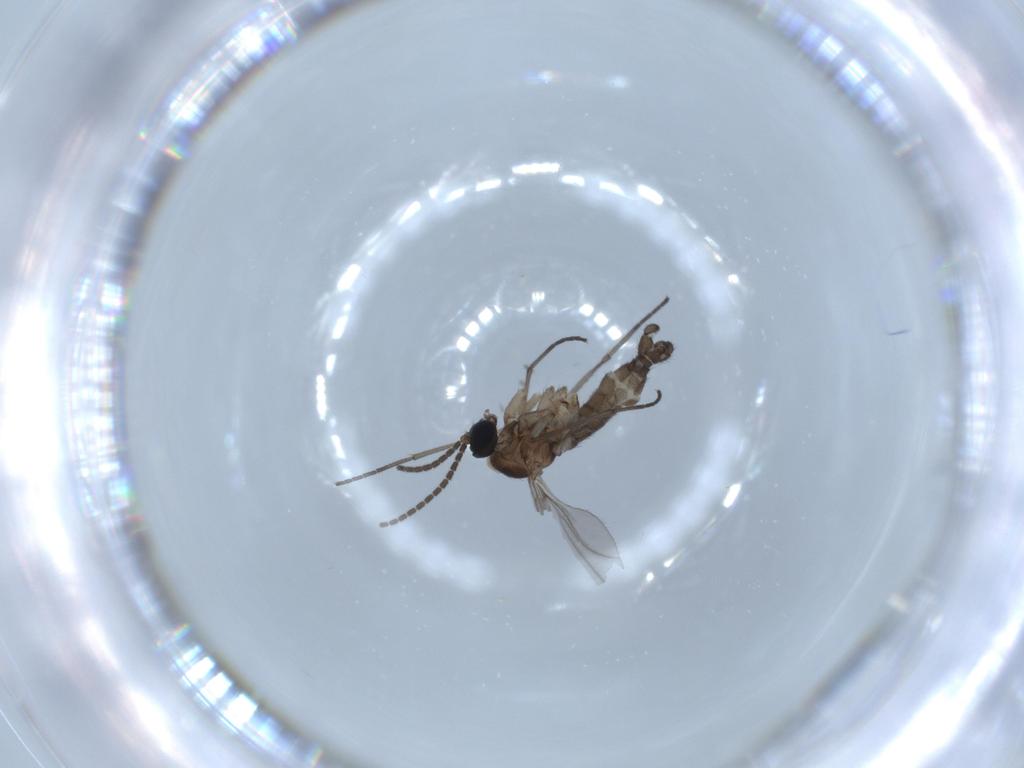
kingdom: Animalia
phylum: Arthropoda
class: Insecta
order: Diptera
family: Sciaridae
